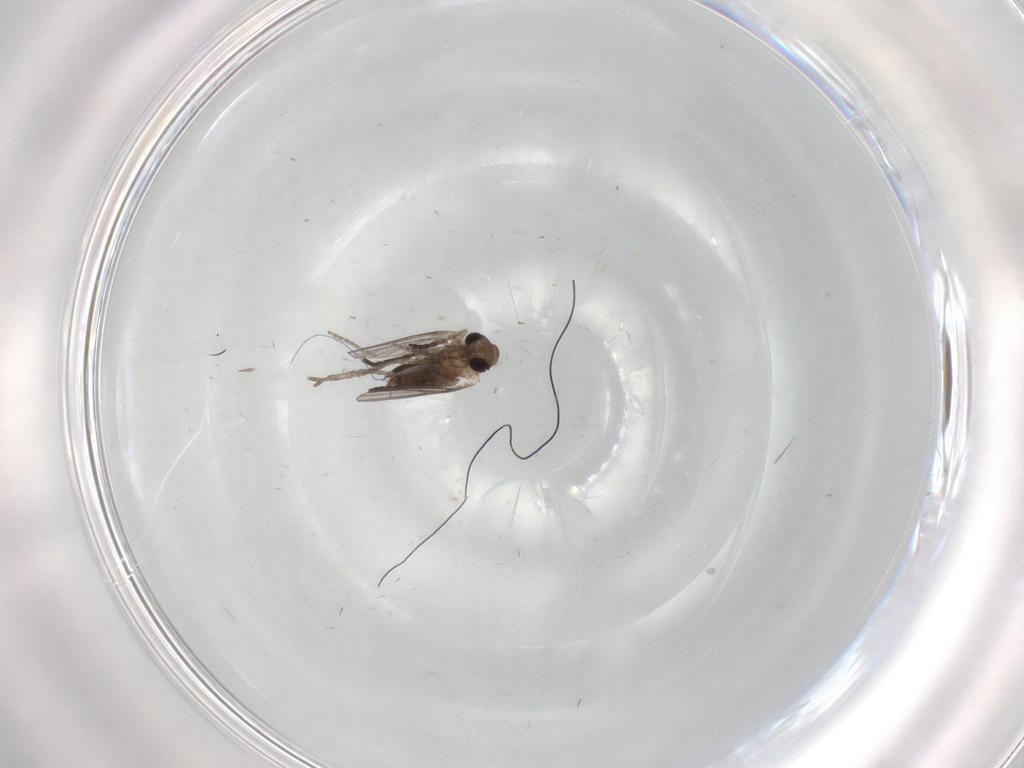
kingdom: Animalia
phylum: Arthropoda
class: Insecta
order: Diptera
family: Keroplatidae
